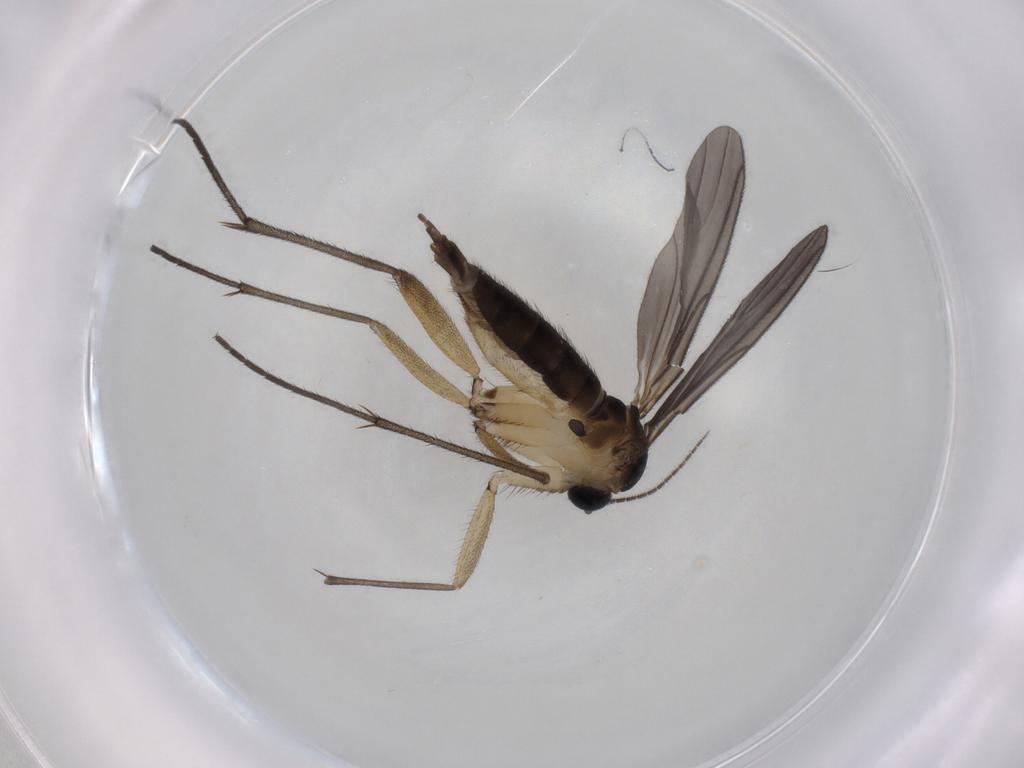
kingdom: Animalia
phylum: Arthropoda
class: Insecta
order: Diptera
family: Sciaridae
